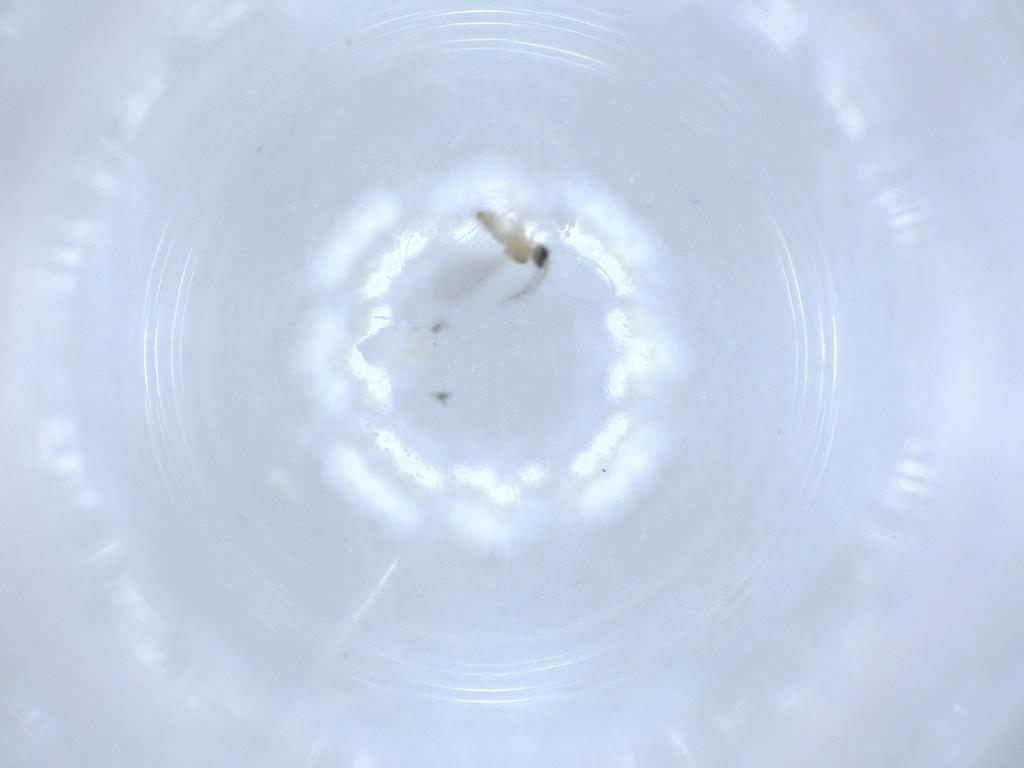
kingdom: Animalia
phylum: Arthropoda
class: Insecta
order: Diptera
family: Cecidomyiidae
